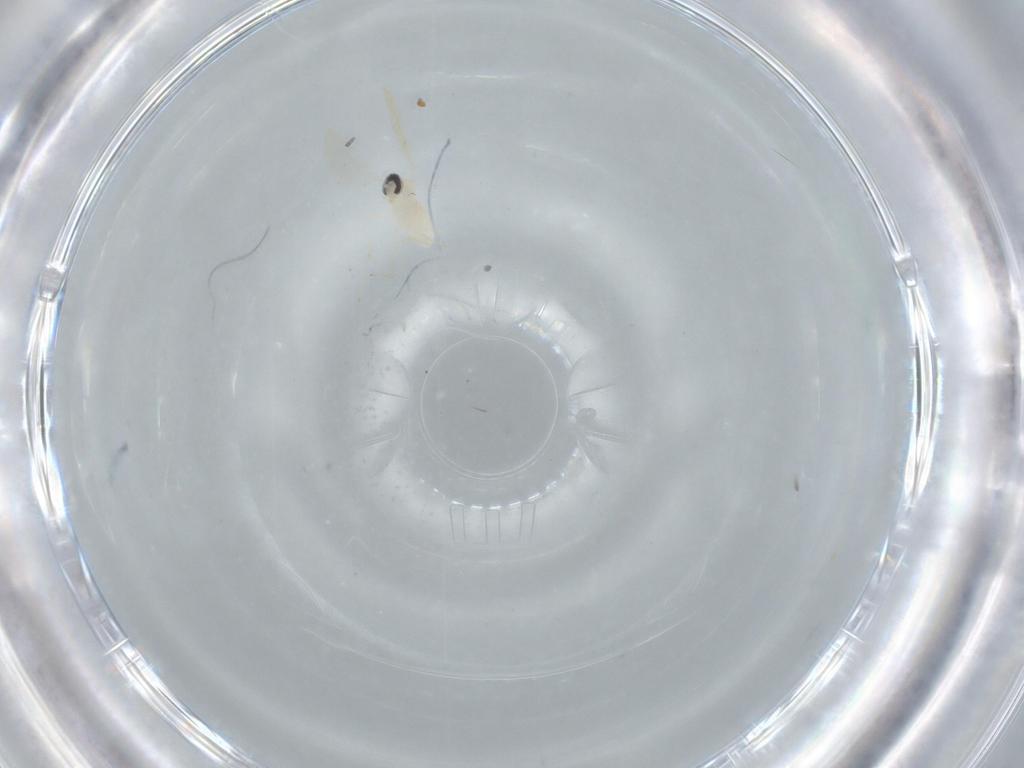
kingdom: Animalia
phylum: Arthropoda
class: Insecta
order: Diptera
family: Cecidomyiidae
